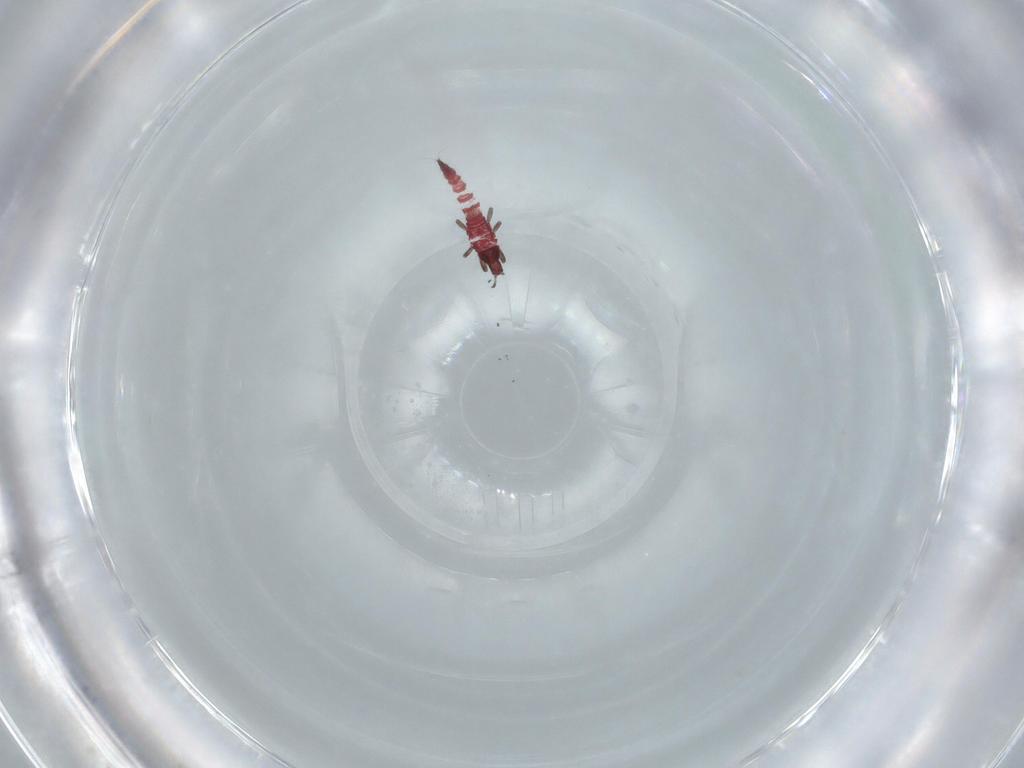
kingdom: Animalia
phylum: Arthropoda
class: Insecta
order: Thysanoptera
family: Phlaeothripidae
